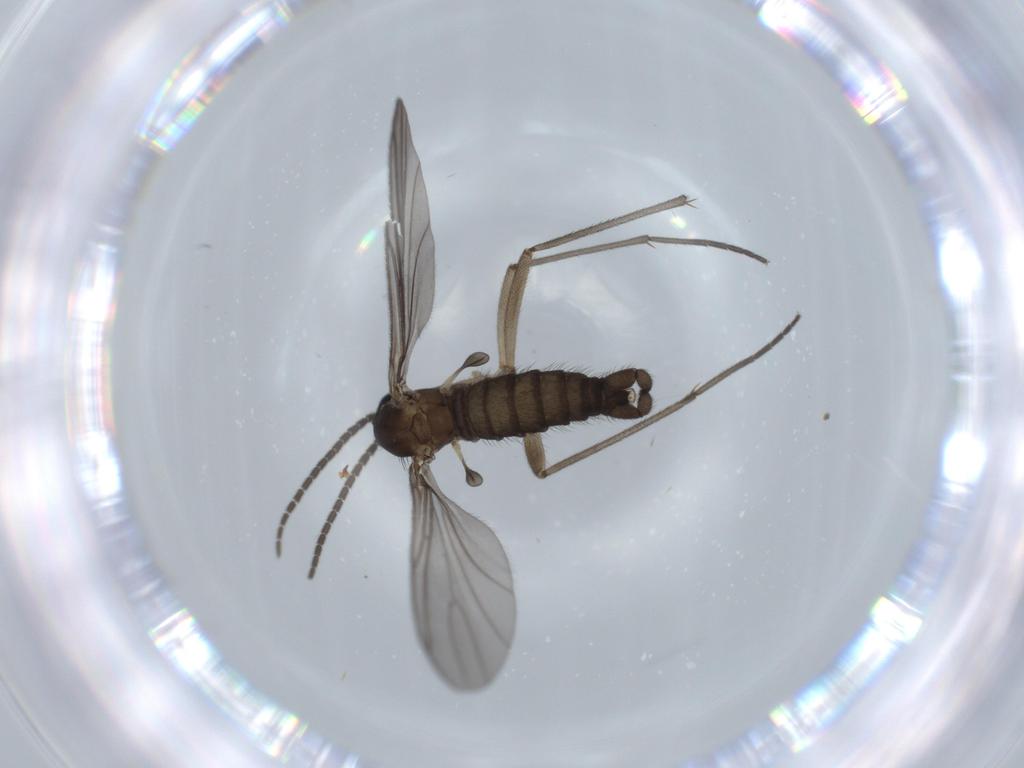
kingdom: Animalia
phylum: Arthropoda
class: Insecta
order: Diptera
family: Sciaridae
